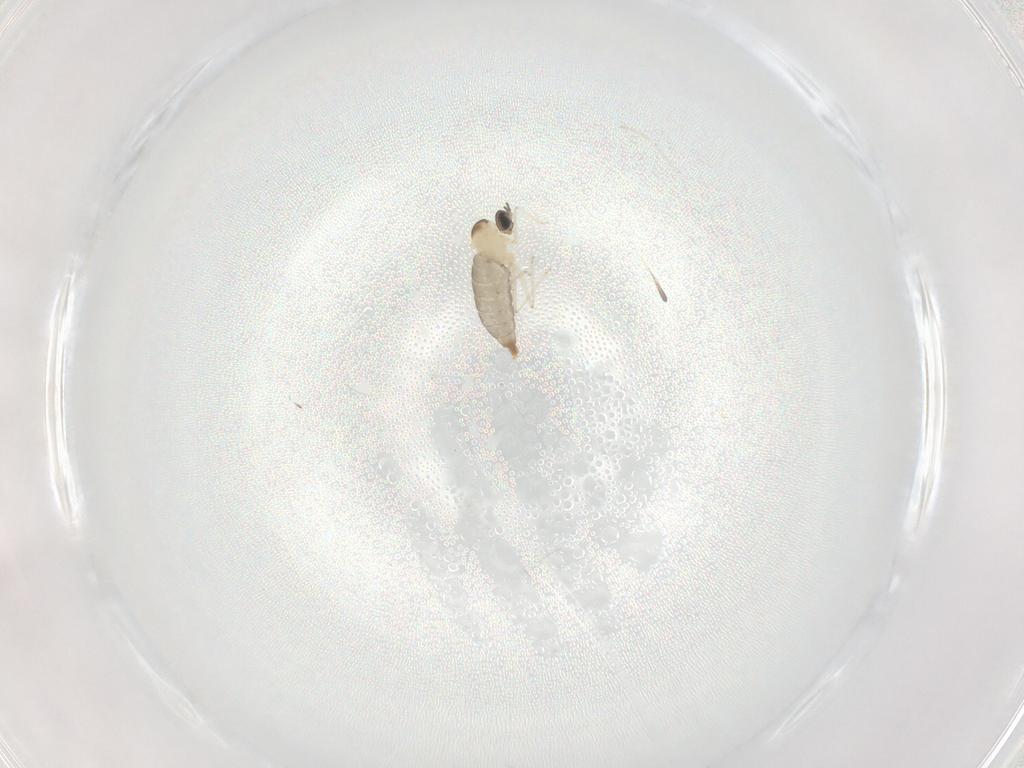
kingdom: Animalia
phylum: Arthropoda
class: Insecta
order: Diptera
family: Cecidomyiidae
